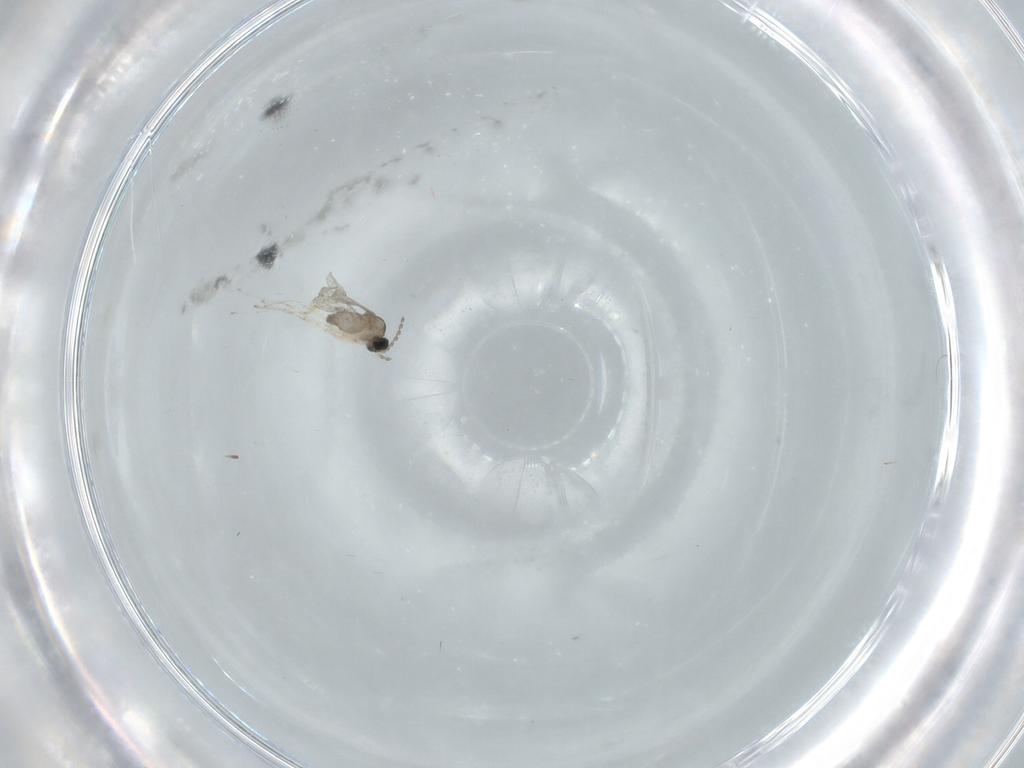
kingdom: Animalia
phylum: Arthropoda
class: Insecta
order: Diptera
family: Cecidomyiidae
